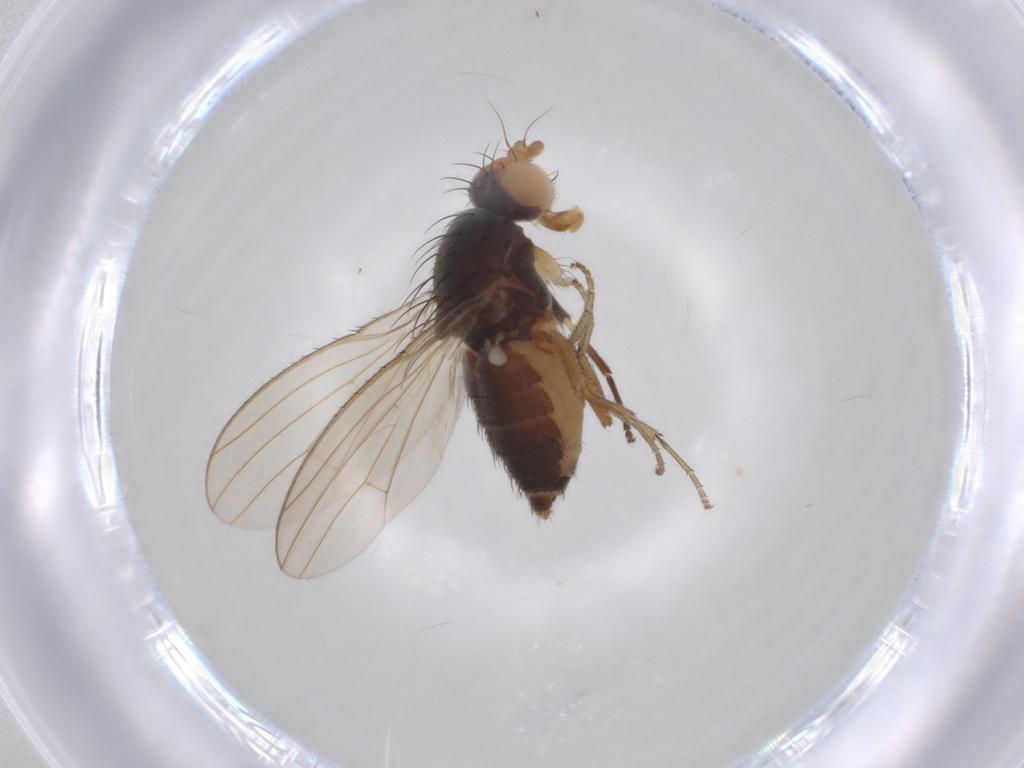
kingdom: Animalia
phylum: Arthropoda
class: Insecta
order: Diptera
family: Heleomyzidae
